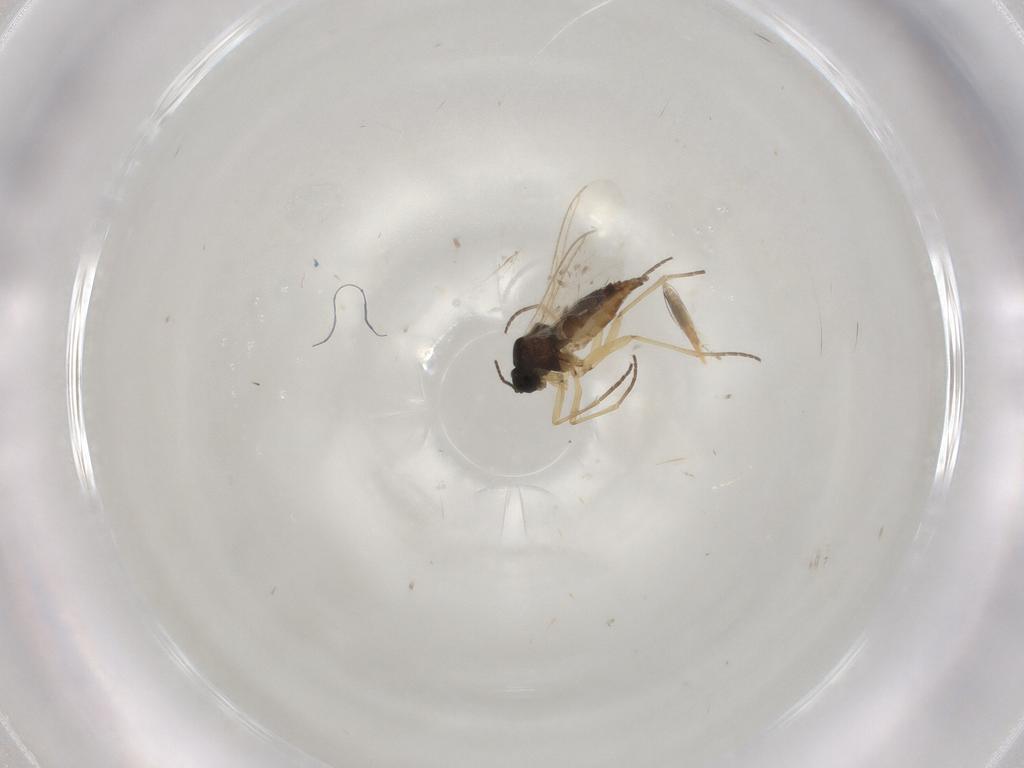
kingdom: Animalia
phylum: Arthropoda
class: Insecta
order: Diptera
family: Sciaridae
